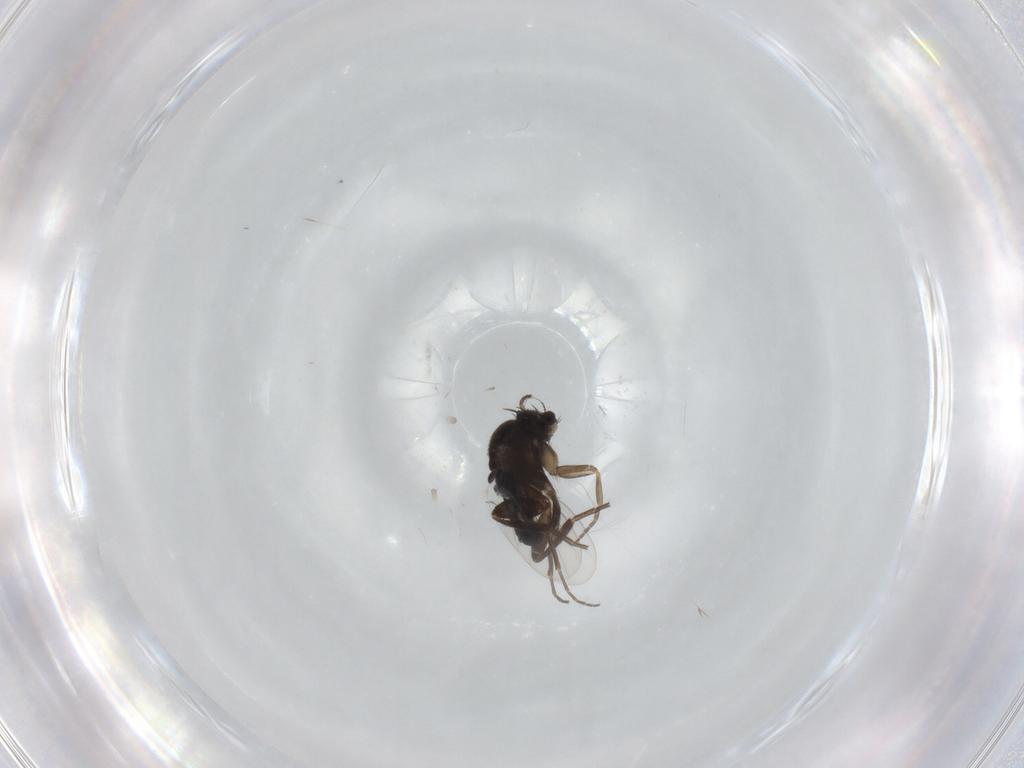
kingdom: Animalia
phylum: Arthropoda
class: Insecta
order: Diptera
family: Phoridae
